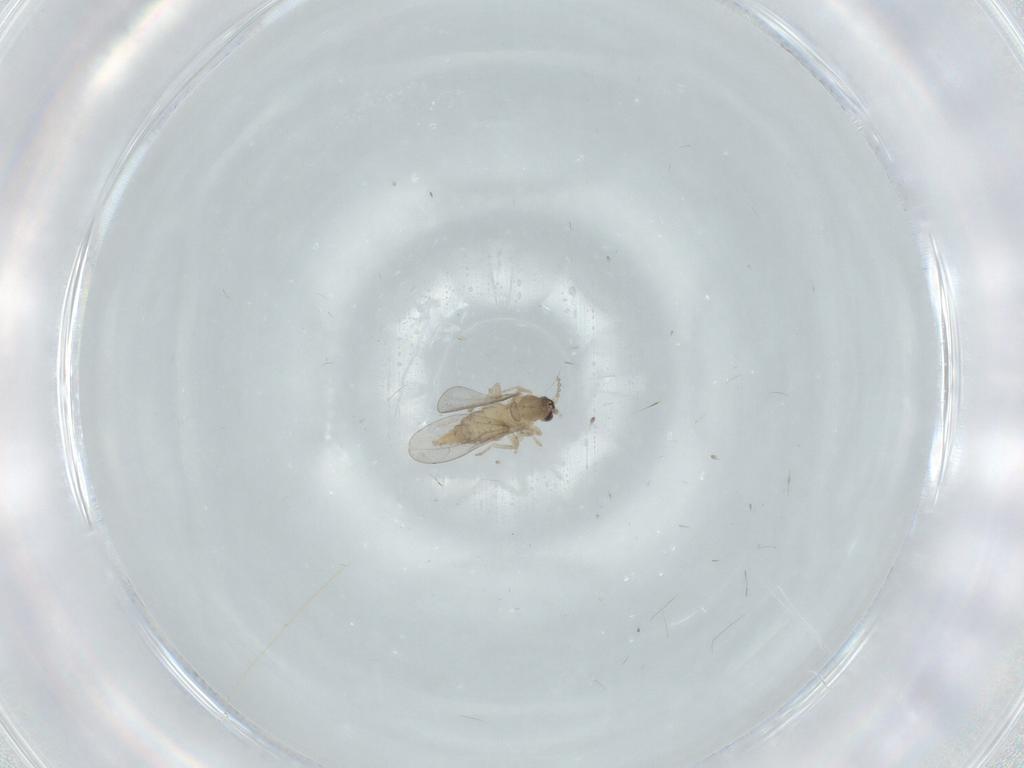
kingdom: Animalia
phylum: Arthropoda
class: Insecta
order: Diptera
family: Cecidomyiidae
